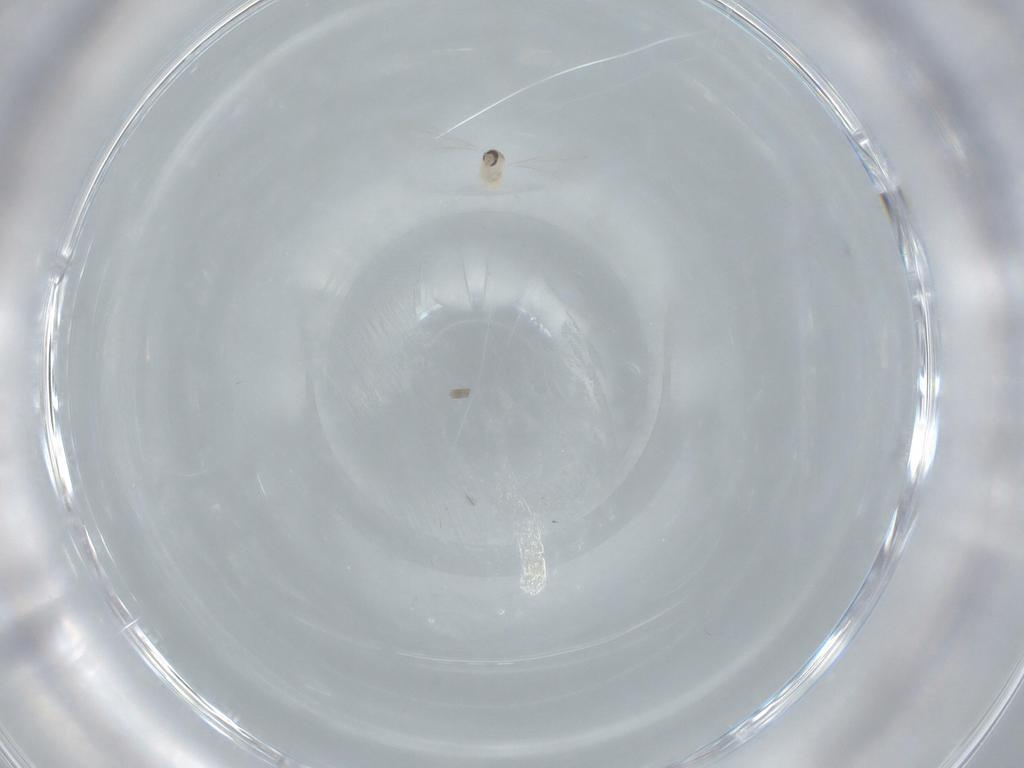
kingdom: Animalia
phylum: Arthropoda
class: Insecta
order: Diptera
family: Cecidomyiidae
